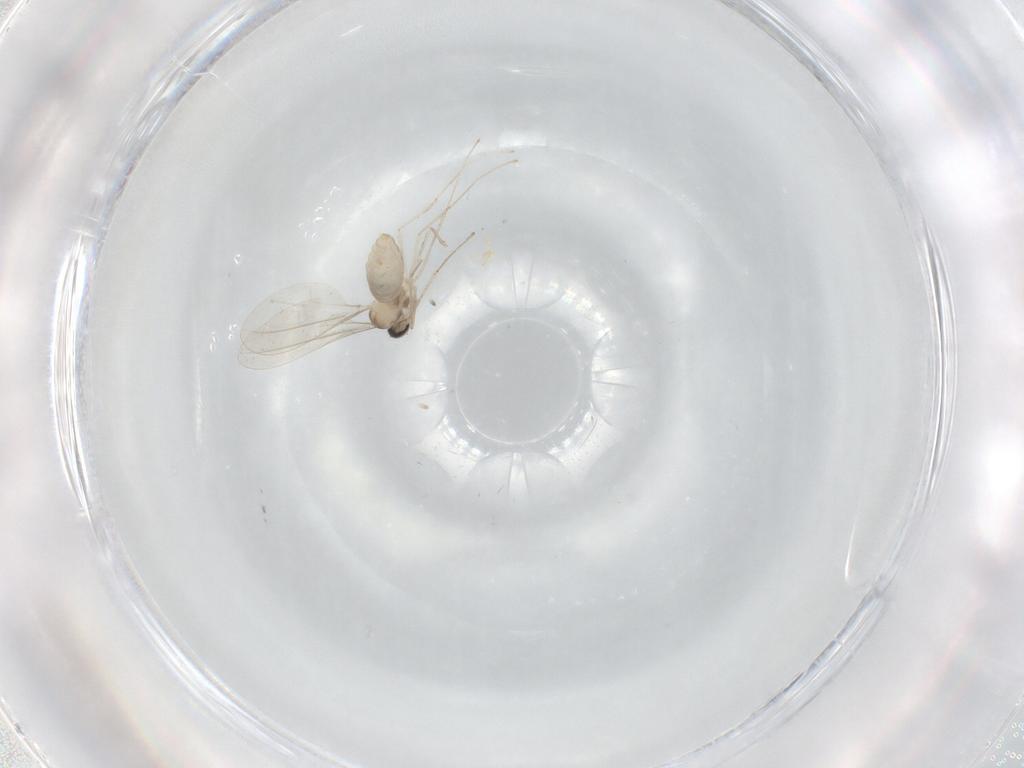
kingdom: Animalia
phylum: Arthropoda
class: Insecta
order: Diptera
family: Cecidomyiidae
